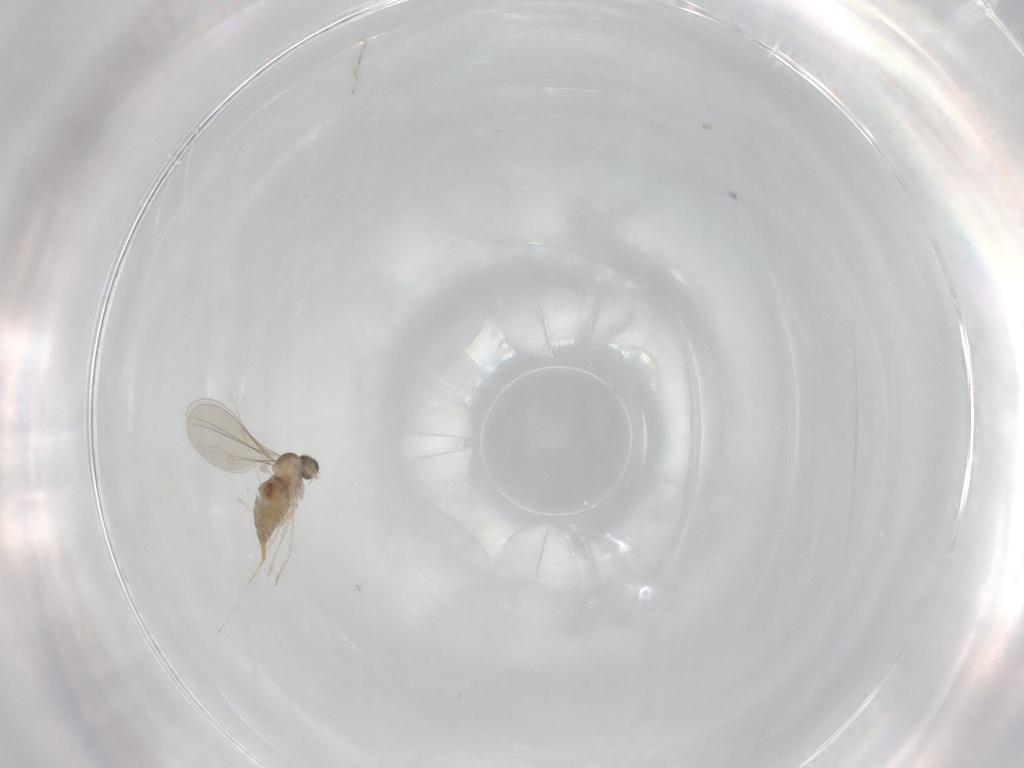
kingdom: Animalia
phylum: Arthropoda
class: Insecta
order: Diptera
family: Cecidomyiidae
